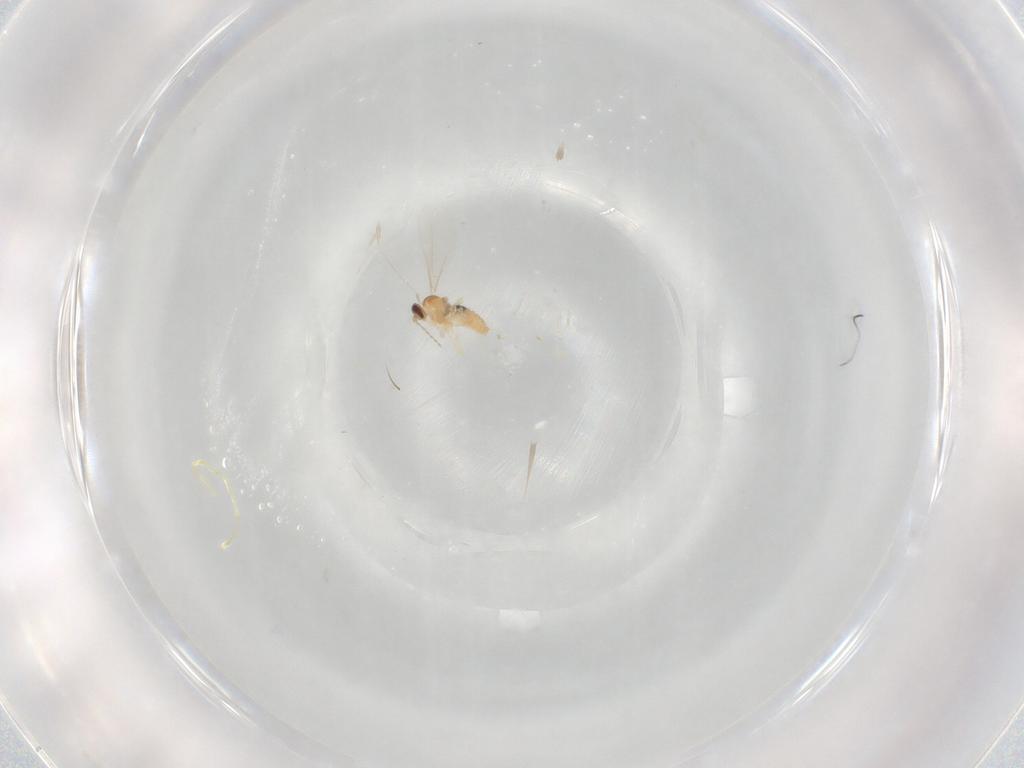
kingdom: Animalia
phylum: Arthropoda
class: Insecta
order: Diptera
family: Cecidomyiidae
